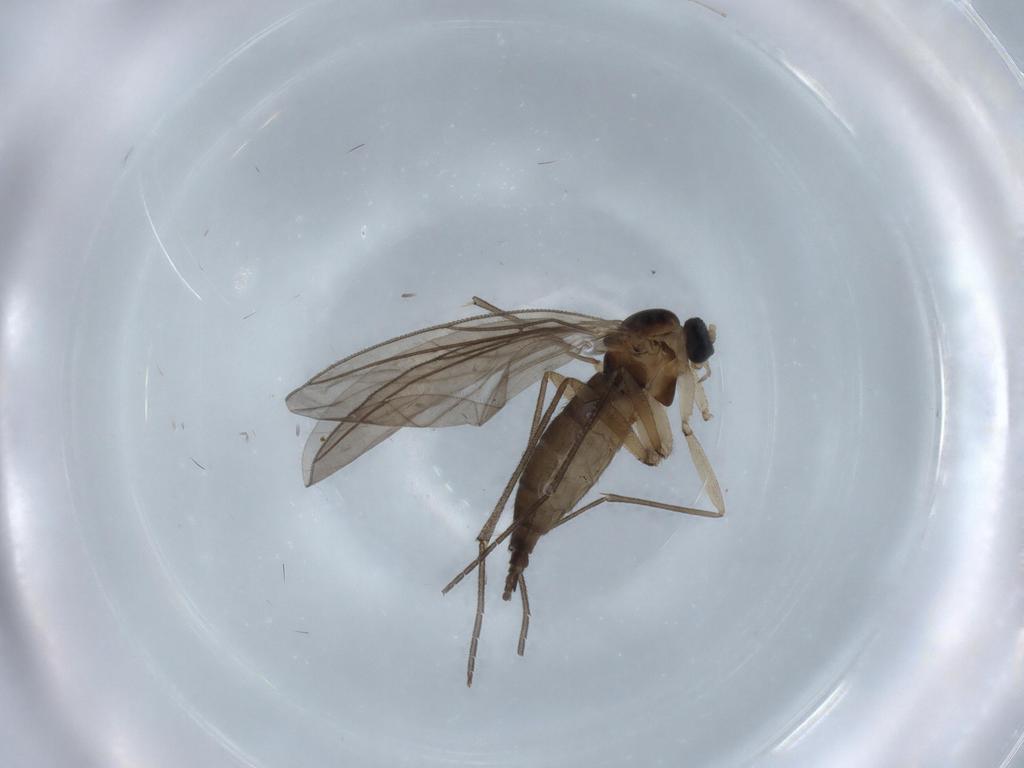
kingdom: Animalia
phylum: Arthropoda
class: Insecta
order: Diptera
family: Sciaridae
